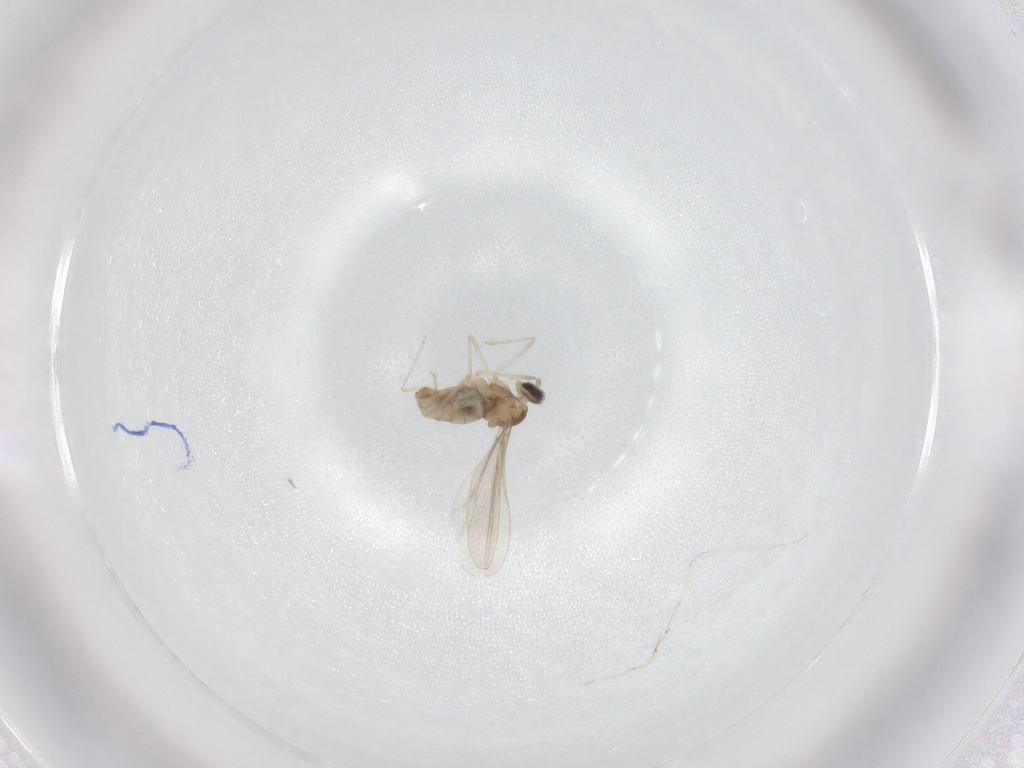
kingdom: Animalia
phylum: Arthropoda
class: Insecta
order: Diptera
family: Cecidomyiidae
